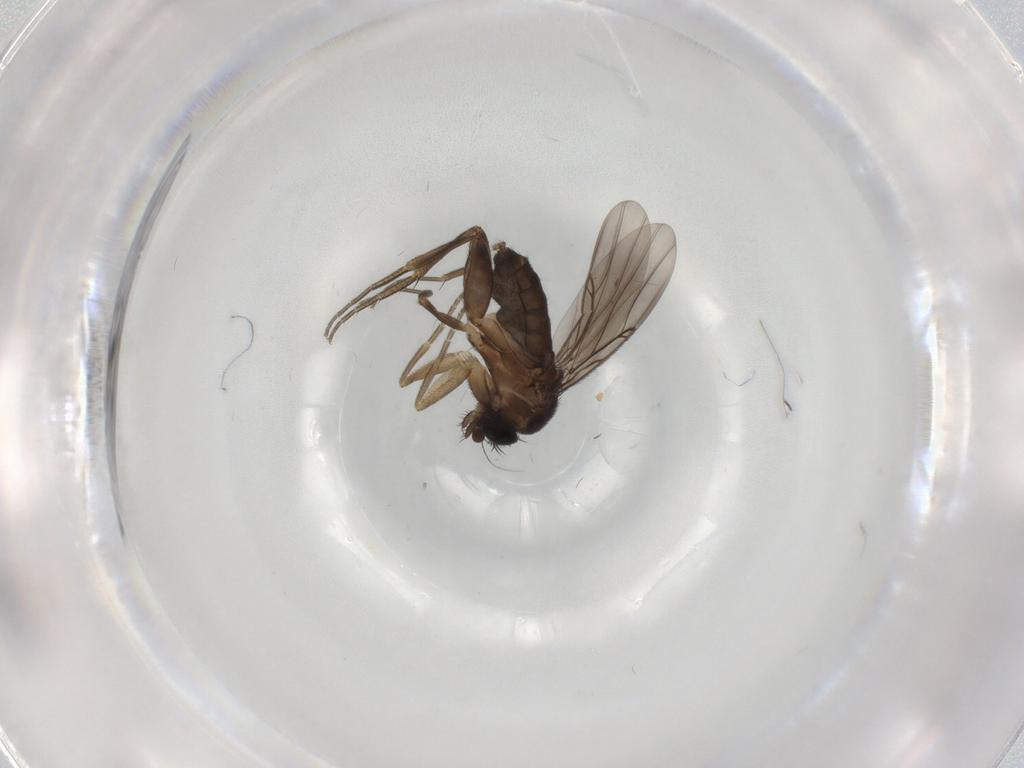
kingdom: Animalia
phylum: Arthropoda
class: Insecta
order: Diptera
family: Phoridae
